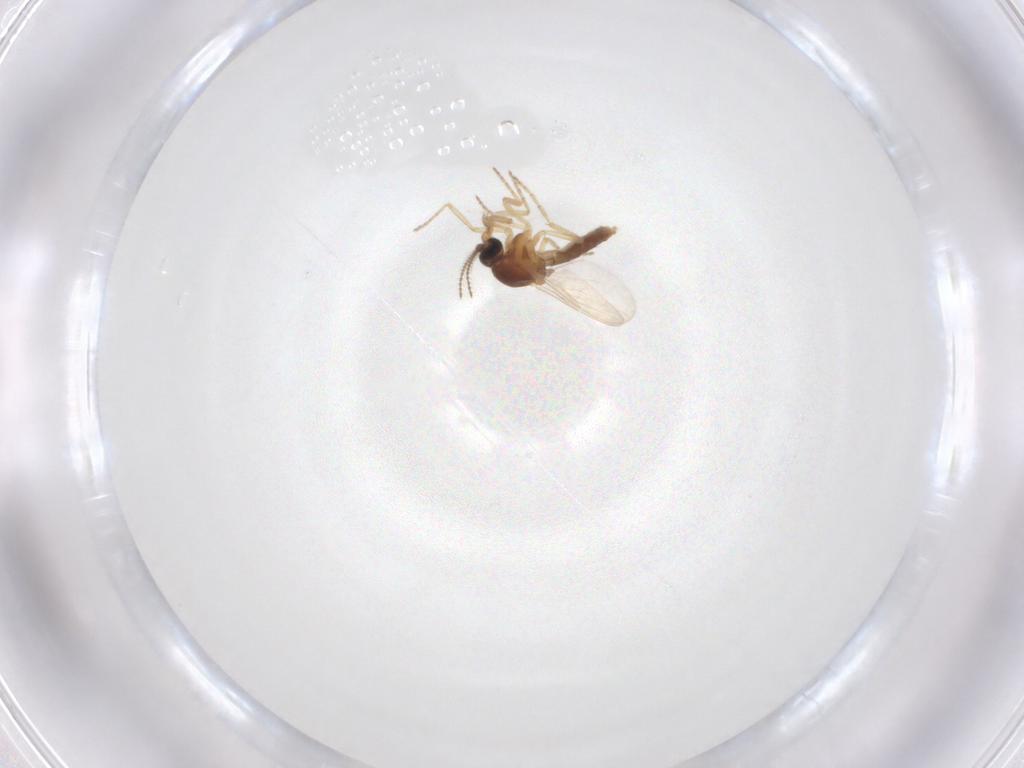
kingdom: Animalia
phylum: Arthropoda
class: Insecta
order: Diptera
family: Ceratopogonidae
